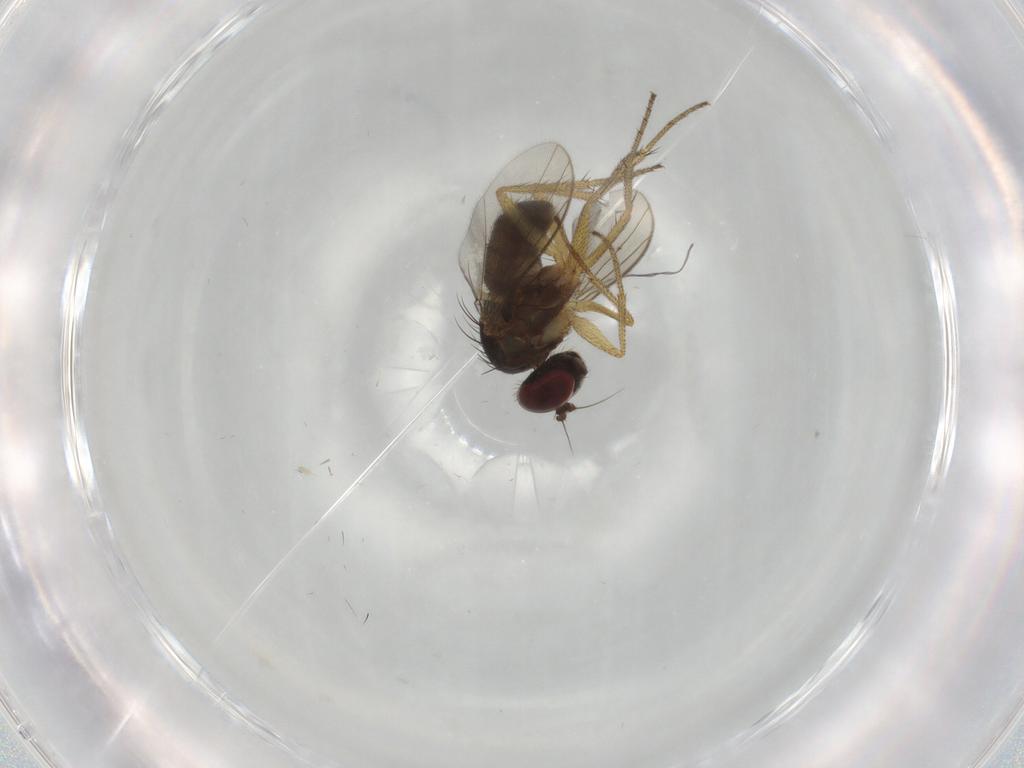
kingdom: Animalia
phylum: Arthropoda
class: Insecta
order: Diptera
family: Dolichopodidae
